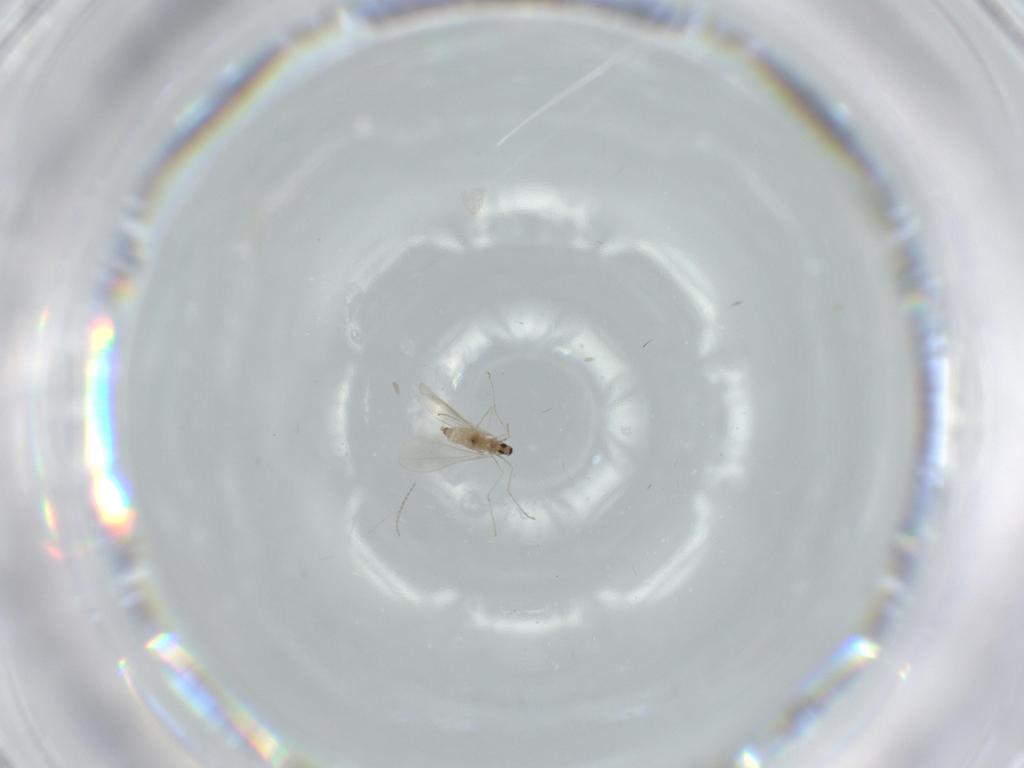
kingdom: Animalia
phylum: Arthropoda
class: Insecta
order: Diptera
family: Cecidomyiidae
